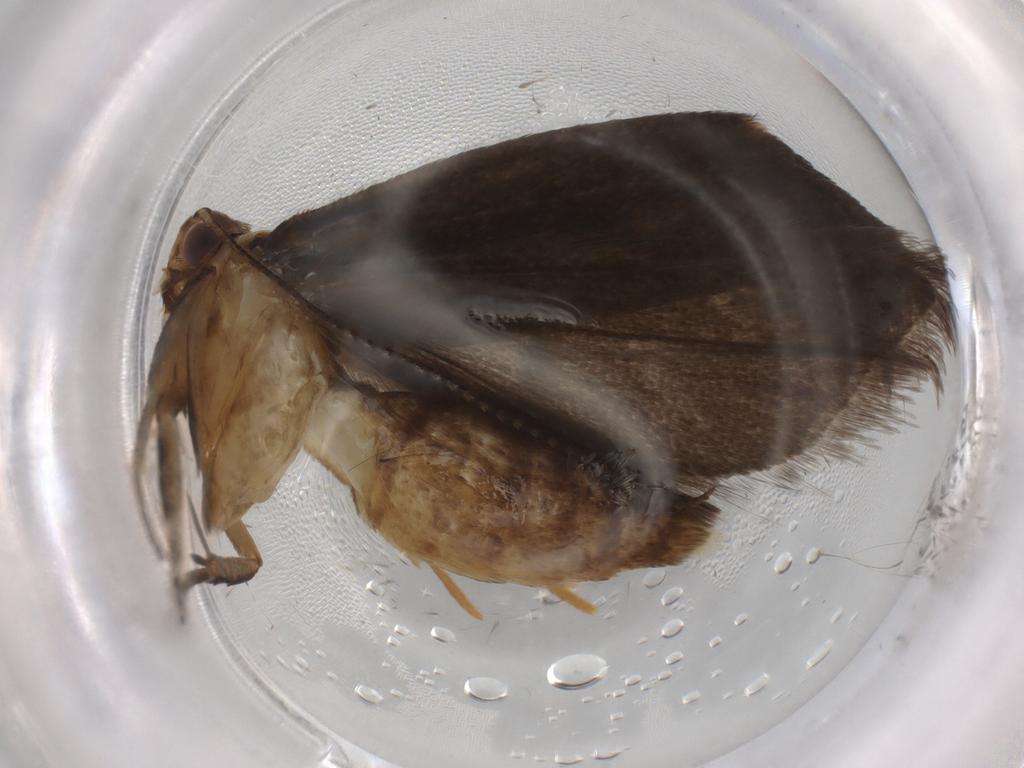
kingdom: Animalia
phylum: Arthropoda
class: Insecta
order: Lepidoptera
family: Gelechiidae
